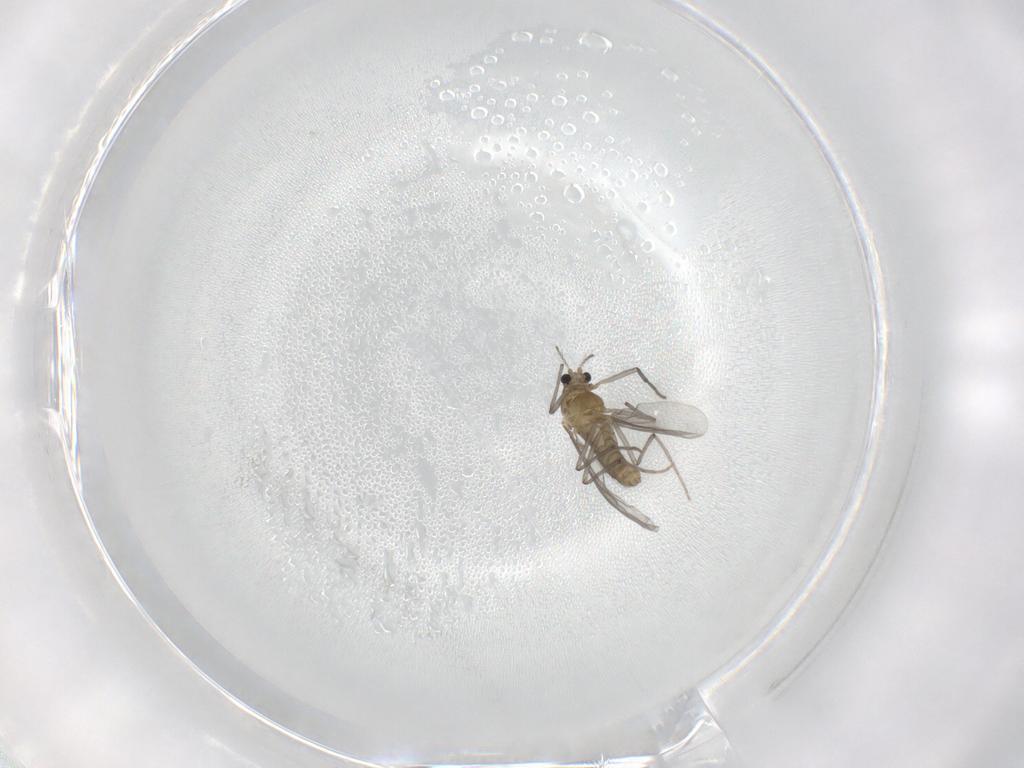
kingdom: Animalia
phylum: Arthropoda
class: Insecta
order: Diptera
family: Chironomidae
